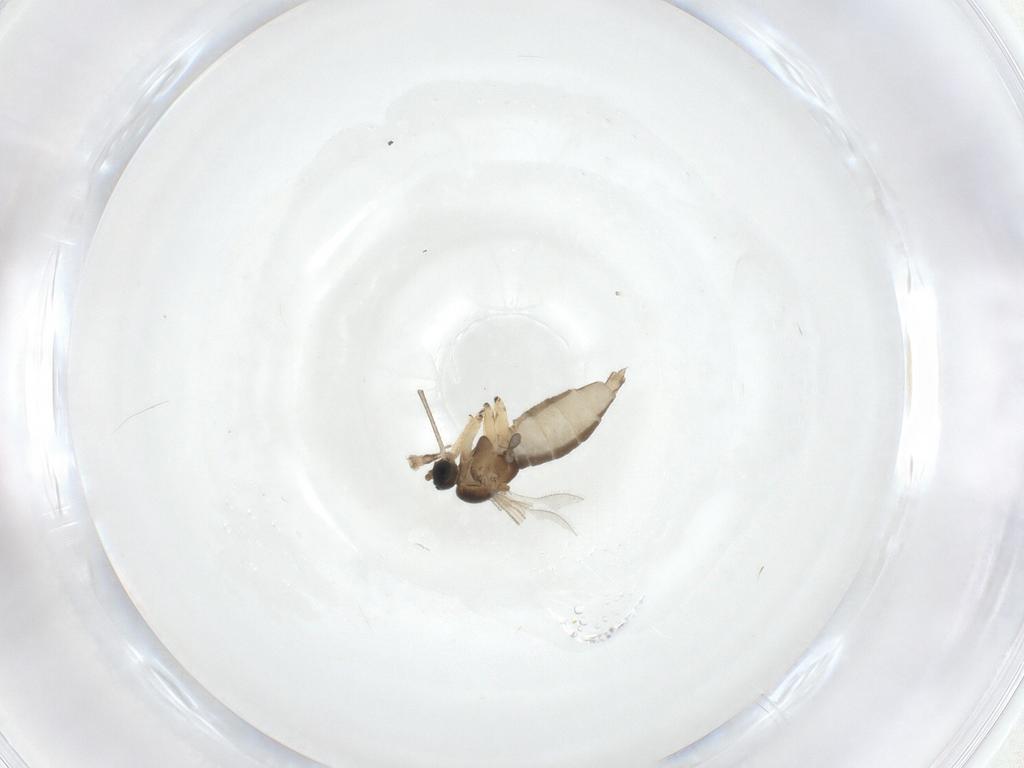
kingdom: Animalia
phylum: Arthropoda
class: Insecta
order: Diptera
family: Sciaridae
